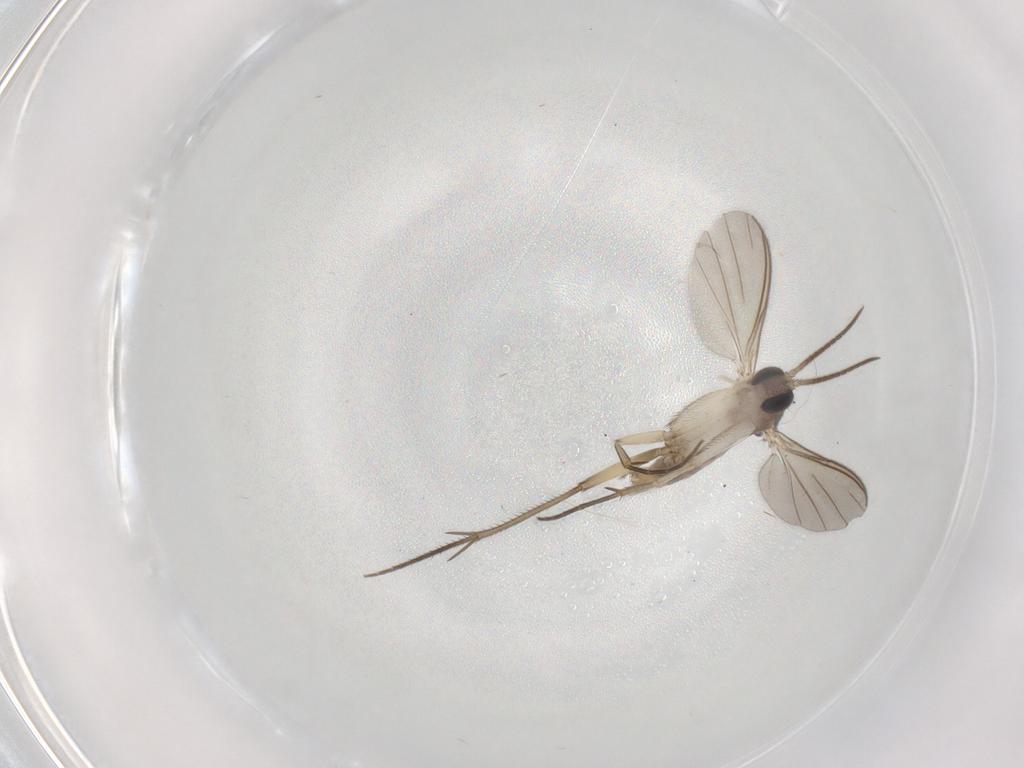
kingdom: Animalia
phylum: Arthropoda
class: Insecta
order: Diptera
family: Mycetophilidae
